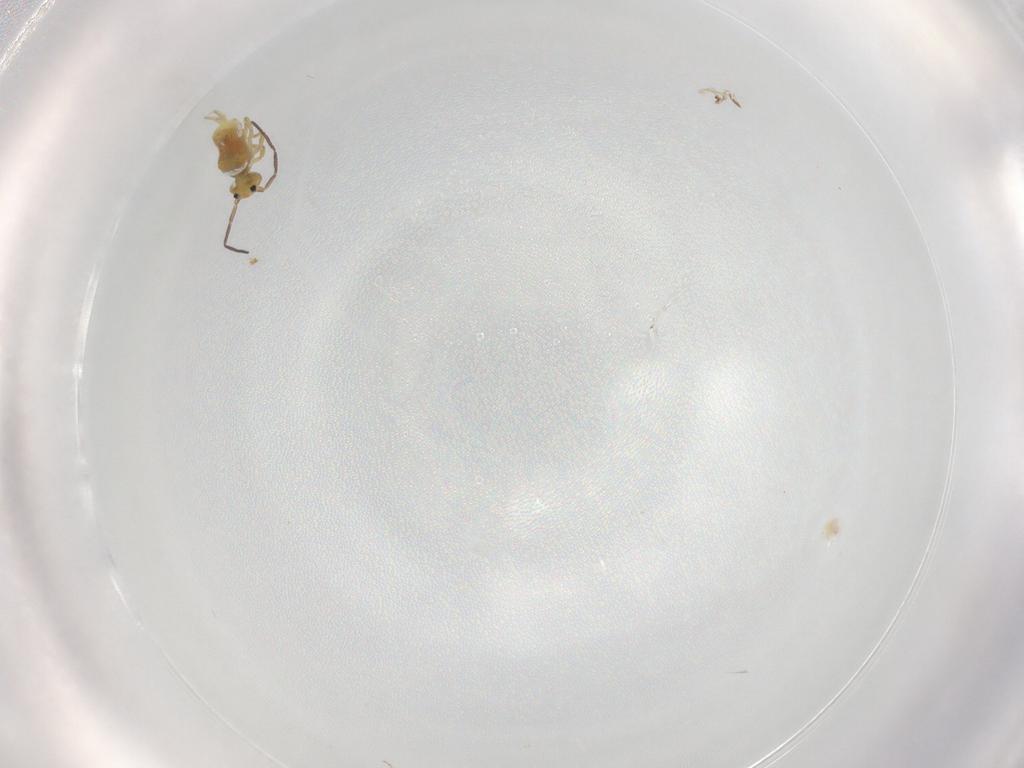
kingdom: Animalia
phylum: Arthropoda
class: Collembola
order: Symphypleona
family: Bourletiellidae
